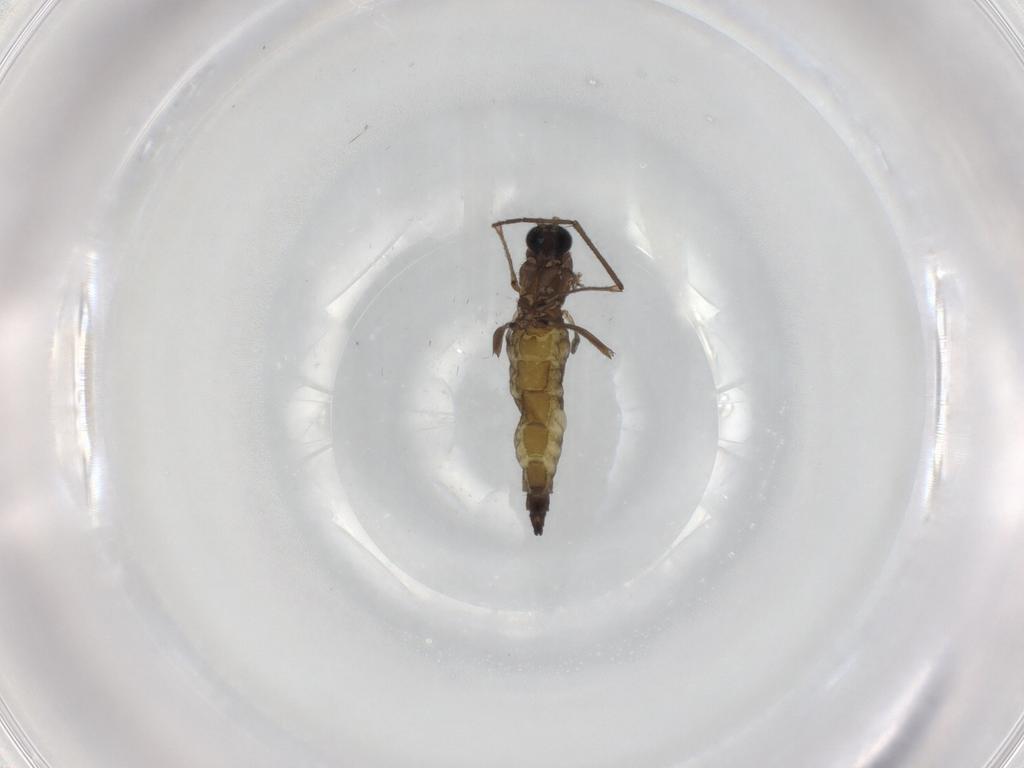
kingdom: Animalia
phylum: Arthropoda
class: Insecta
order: Diptera
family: Sciaridae
